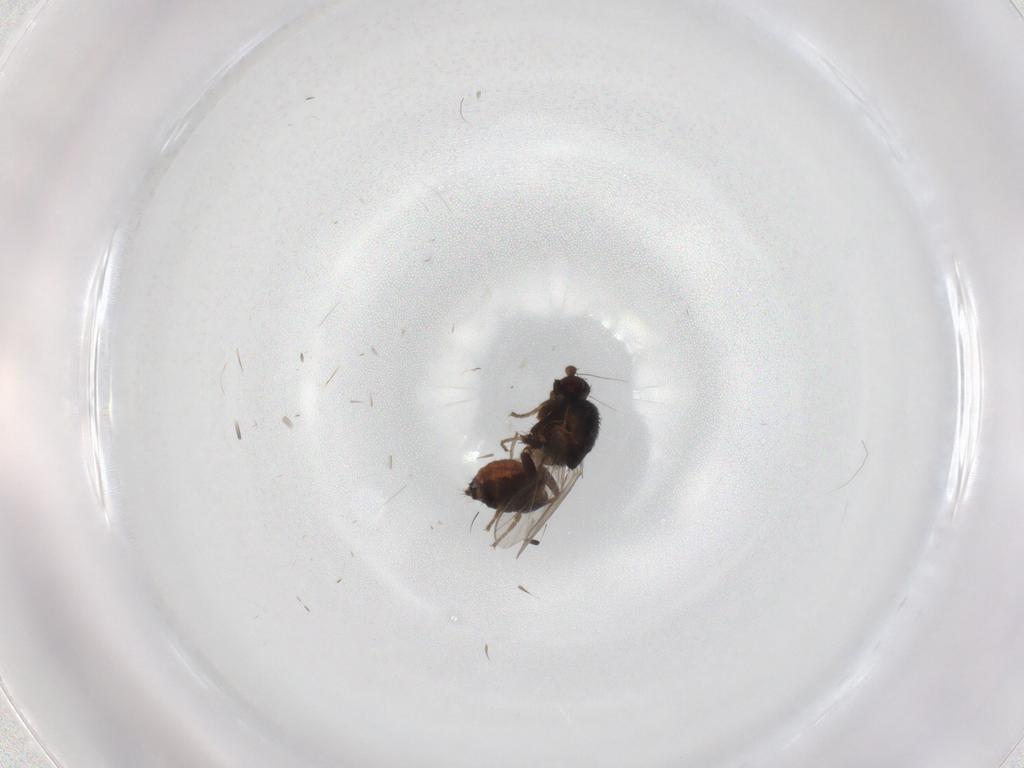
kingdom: Animalia
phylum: Arthropoda
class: Insecta
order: Diptera
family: Sphaeroceridae
